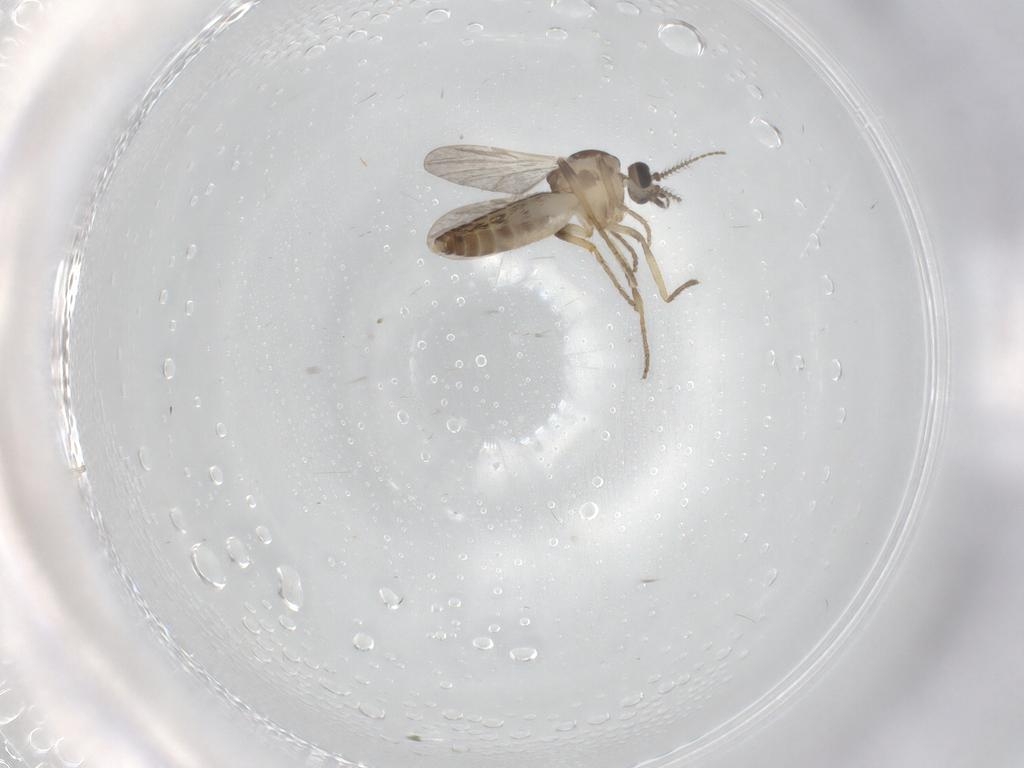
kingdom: Animalia
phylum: Arthropoda
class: Insecta
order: Diptera
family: Ceratopogonidae
